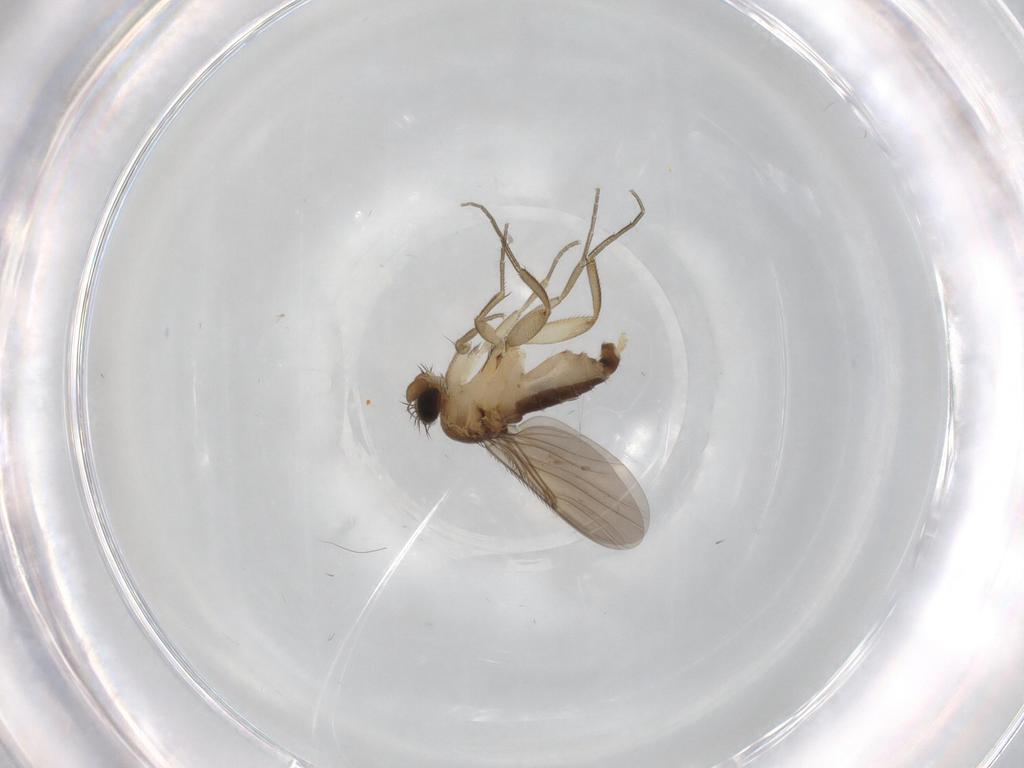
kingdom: Animalia
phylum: Arthropoda
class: Insecta
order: Diptera
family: Phoridae
